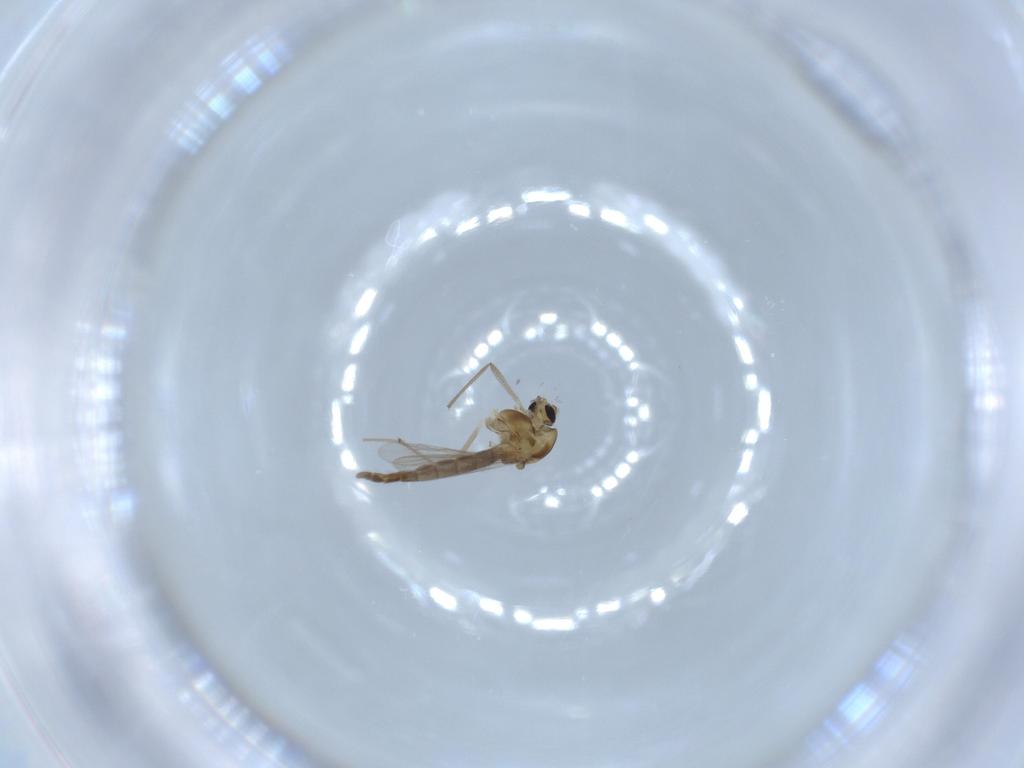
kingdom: Animalia
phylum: Arthropoda
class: Insecta
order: Diptera
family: Chironomidae
